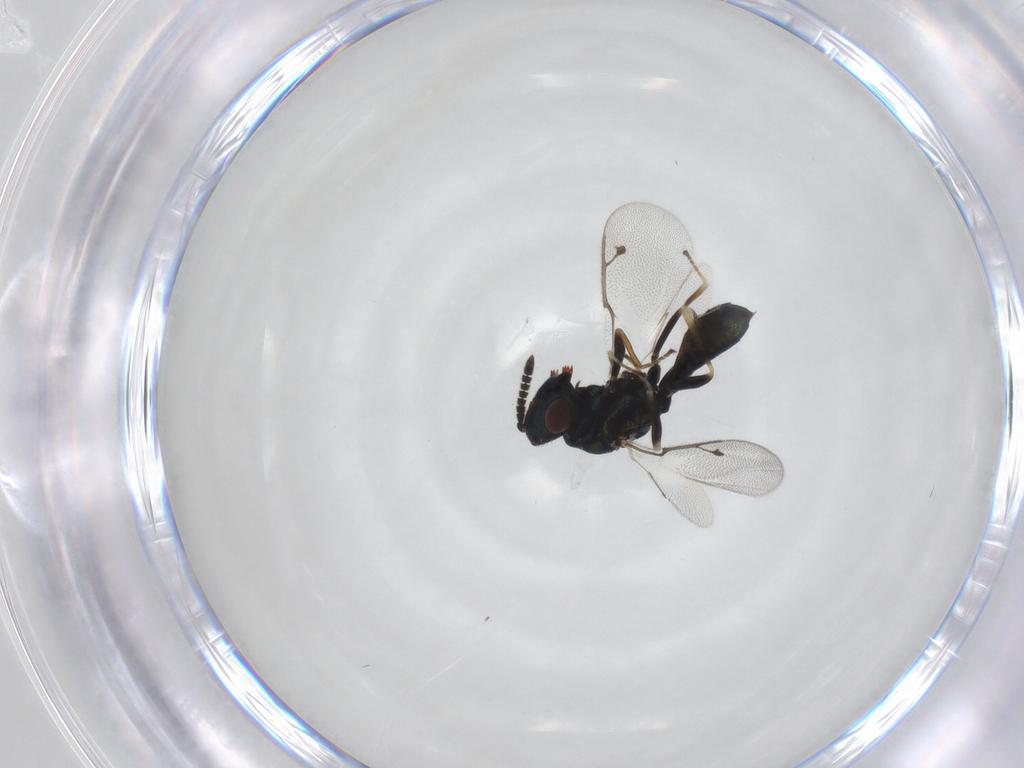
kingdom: Animalia
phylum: Arthropoda
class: Insecta
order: Hymenoptera
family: Pteromalidae
